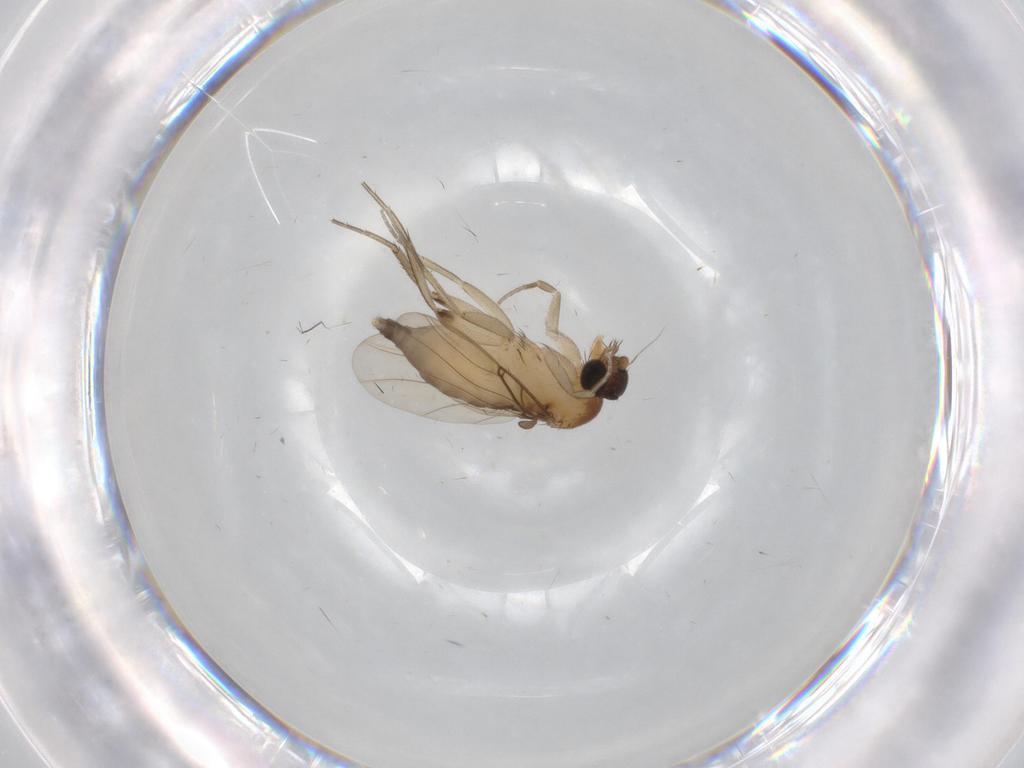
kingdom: Animalia
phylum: Arthropoda
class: Insecta
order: Diptera
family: Phoridae
